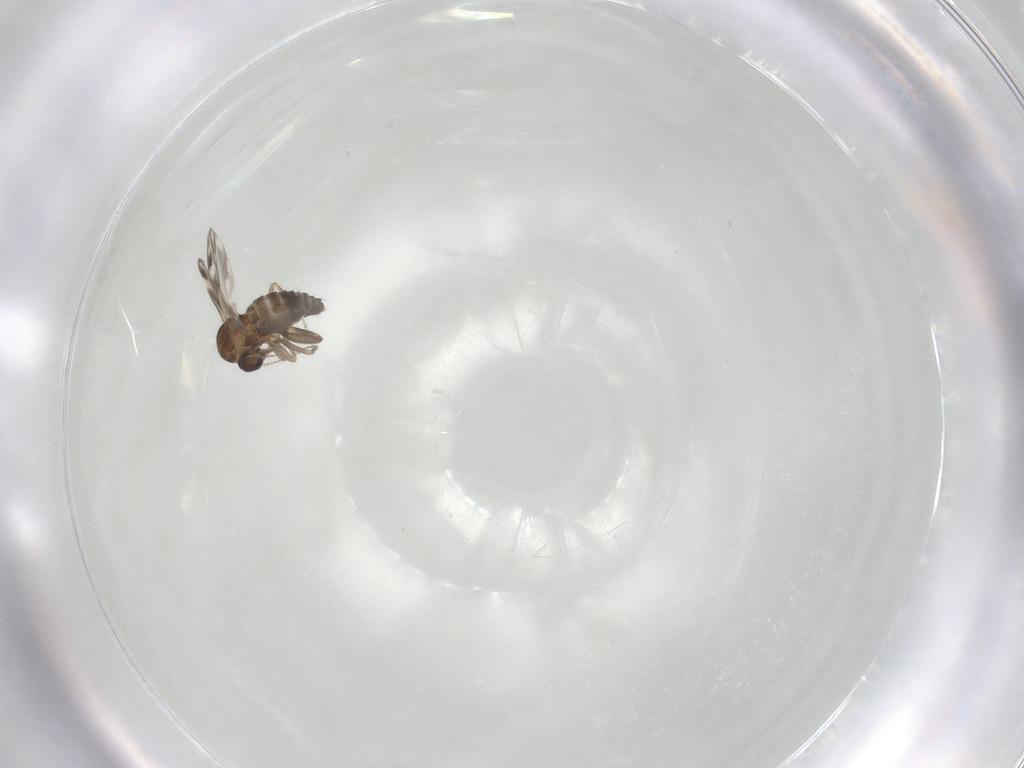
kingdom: Animalia
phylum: Arthropoda
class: Insecta
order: Diptera
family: Ceratopogonidae
